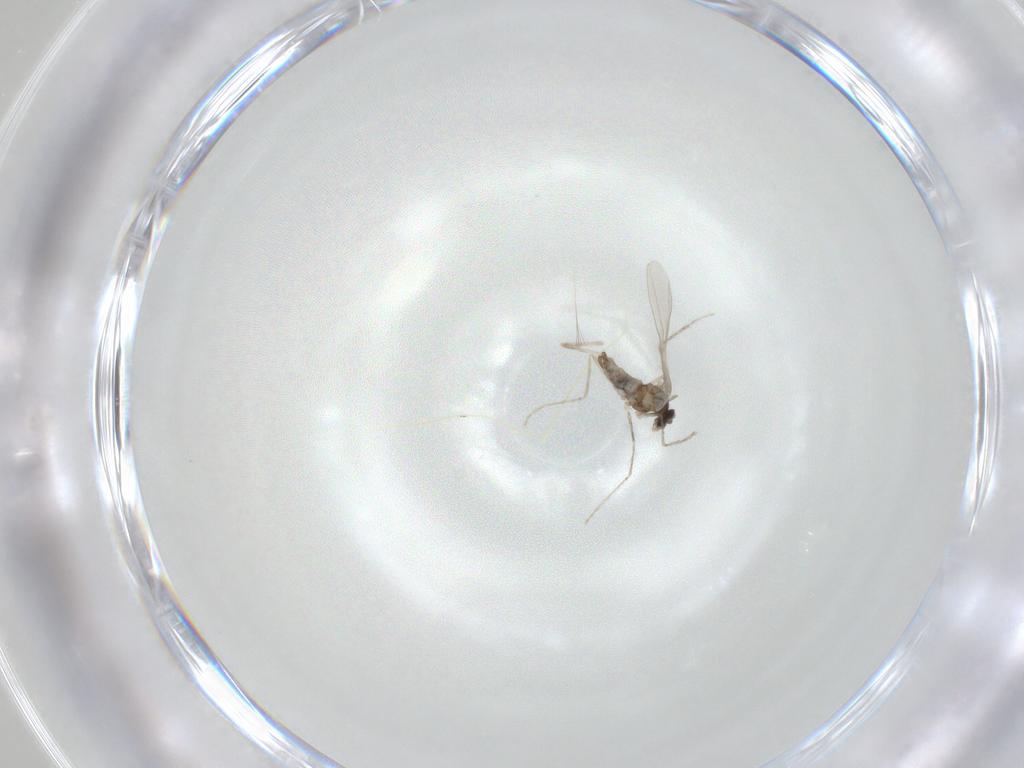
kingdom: Animalia
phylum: Arthropoda
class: Insecta
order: Diptera
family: Cecidomyiidae
